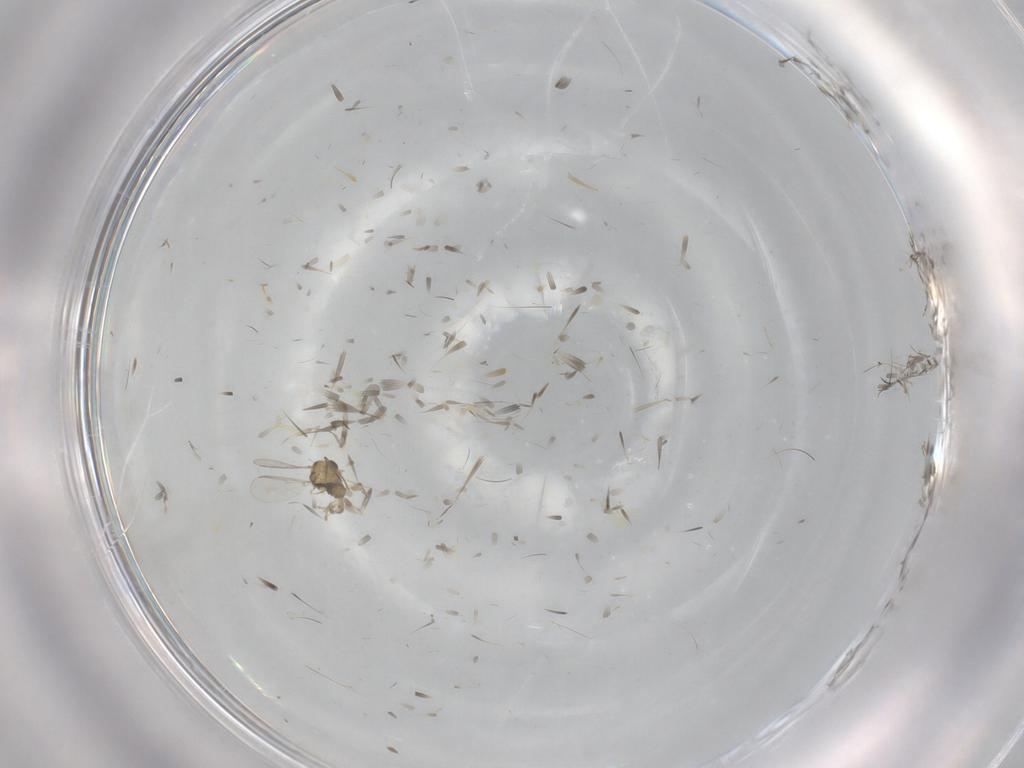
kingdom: Animalia
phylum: Arthropoda
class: Insecta
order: Diptera
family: Chironomidae
